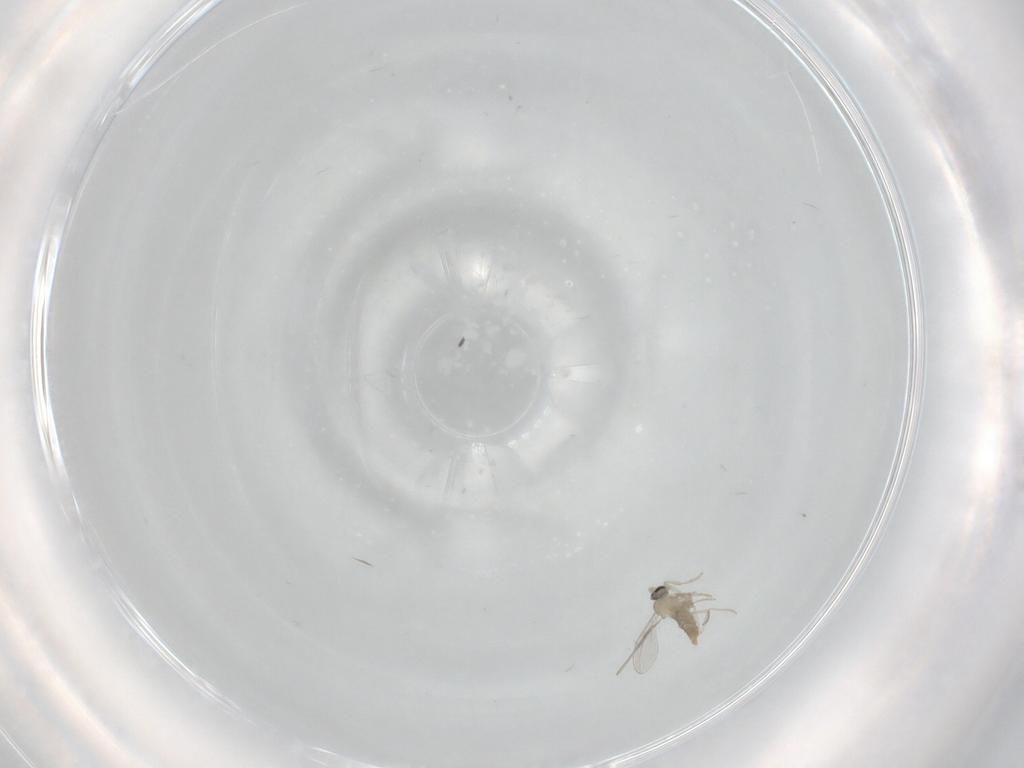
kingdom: Animalia
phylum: Arthropoda
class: Insecta
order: Diptera
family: Cecidomyiidae
